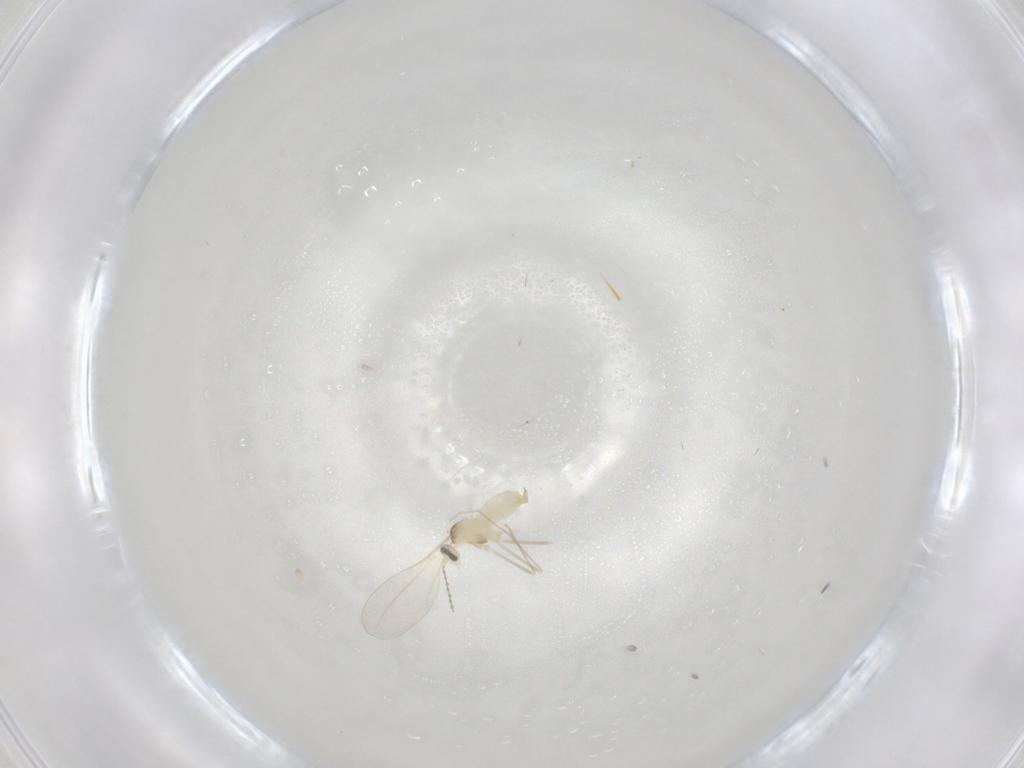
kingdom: Animalia
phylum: Arthropoda
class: Insecta
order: Diptera
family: Cecidomyiidae
